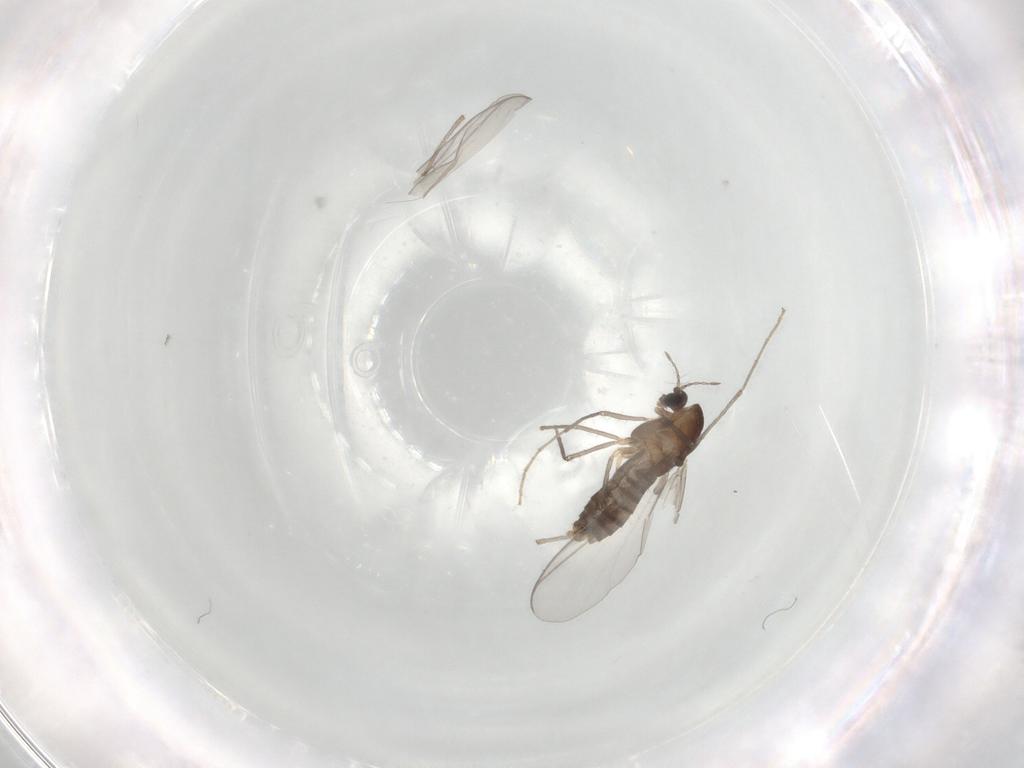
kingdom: Animalia
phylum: Arthropoda
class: Insecta
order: Diptera
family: Chironomidae
